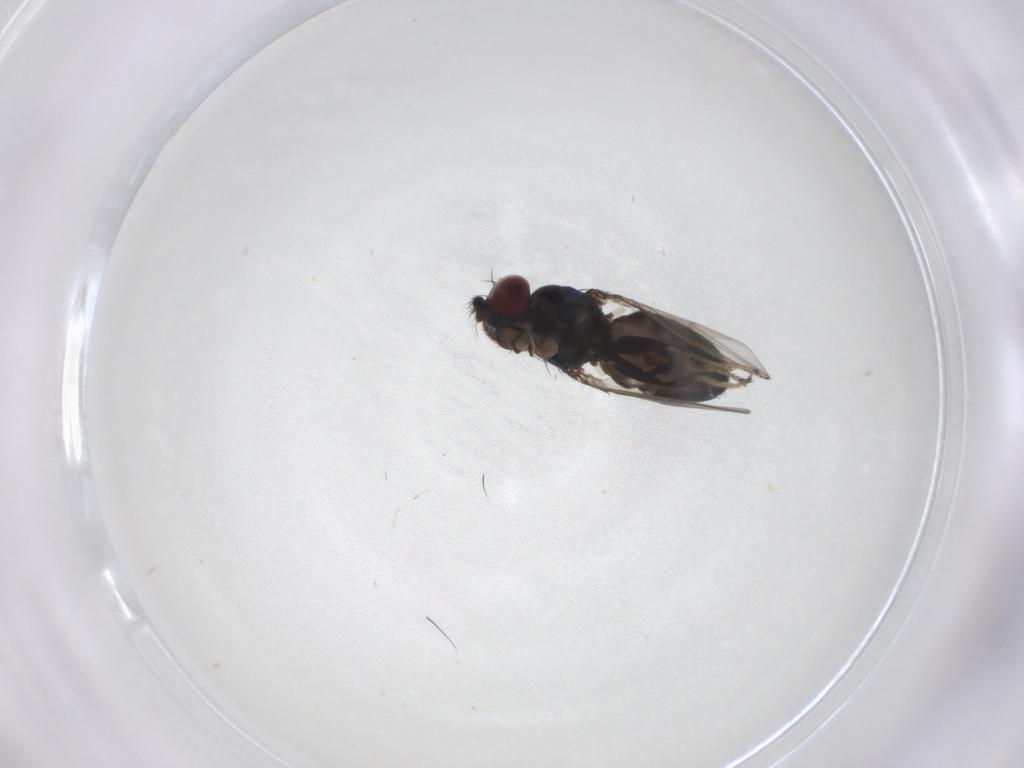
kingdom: Animalia
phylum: Arthropoda
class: Insecta
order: Diptera
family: Ephydridae
